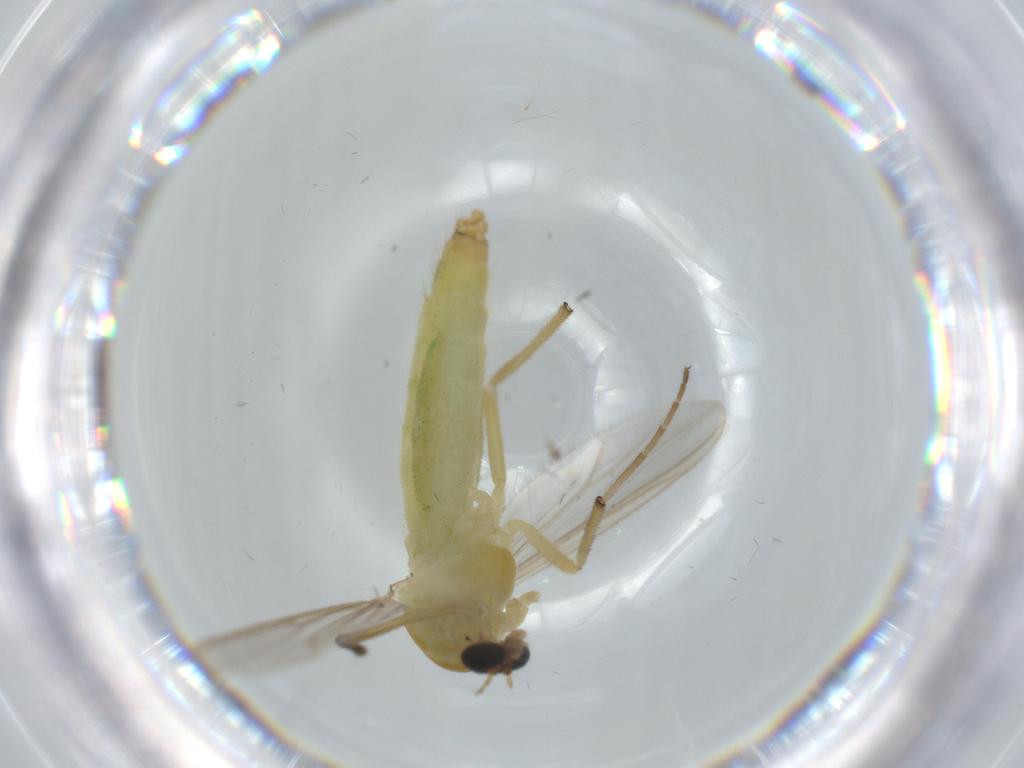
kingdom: Animalia
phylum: Arthropoda
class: Insecta
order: Diptera
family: Chironomidae
